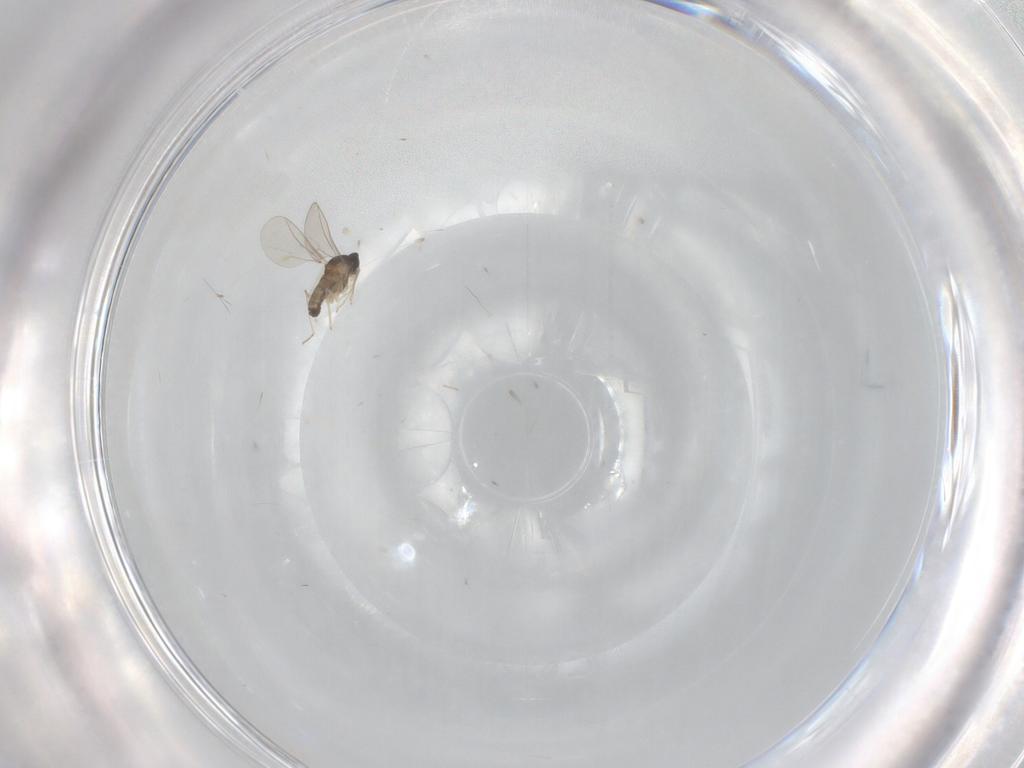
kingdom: Animalia
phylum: Arthropoda
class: Insecta
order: Diptera
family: Cecidomyiidae
